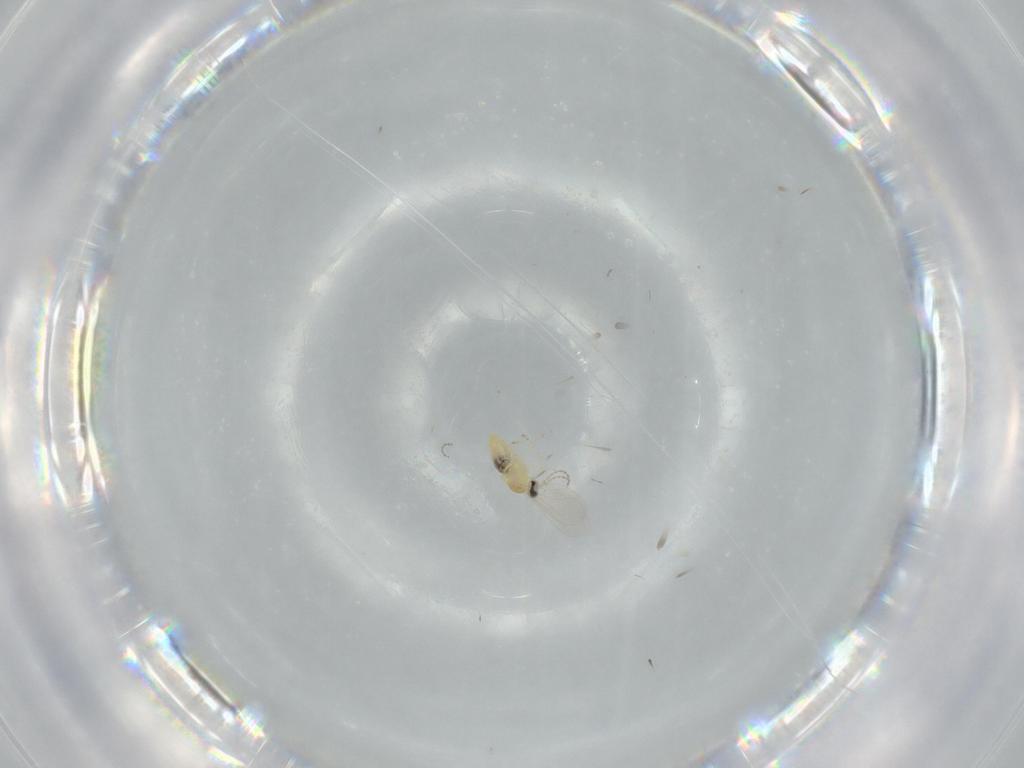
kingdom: Animalia
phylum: Arthropoda
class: Insecta
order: Diptera
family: Cecidomyiidae
